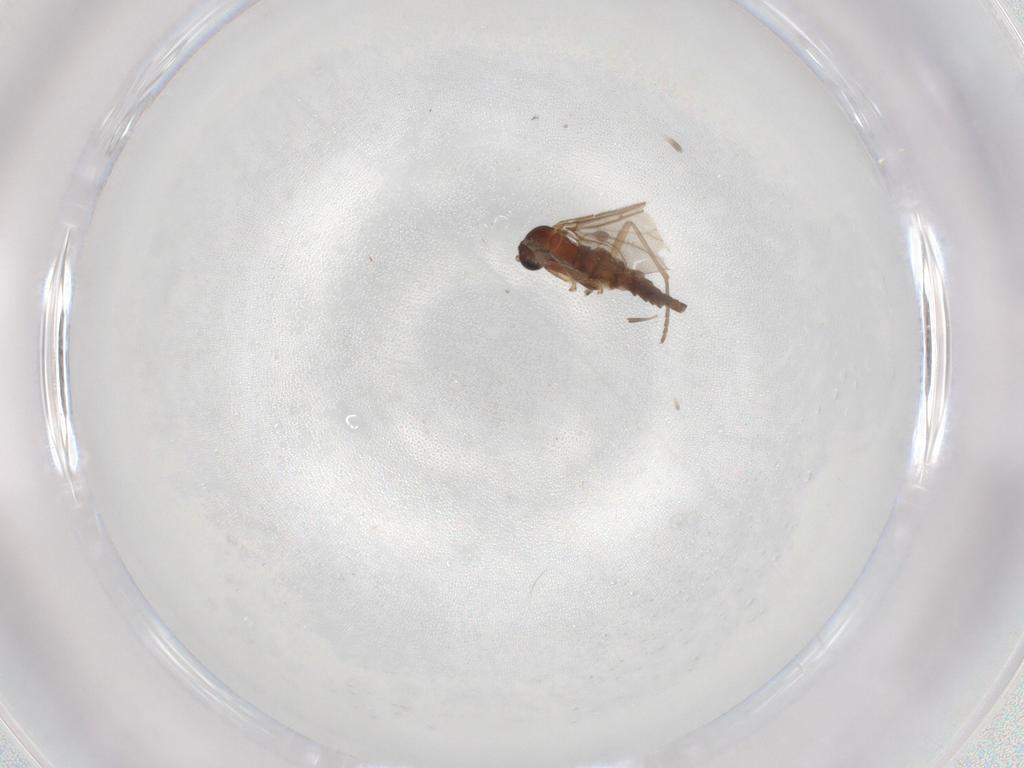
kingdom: Animalia
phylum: Arthropoda
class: Insecta
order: Diptera
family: Sciaridae
